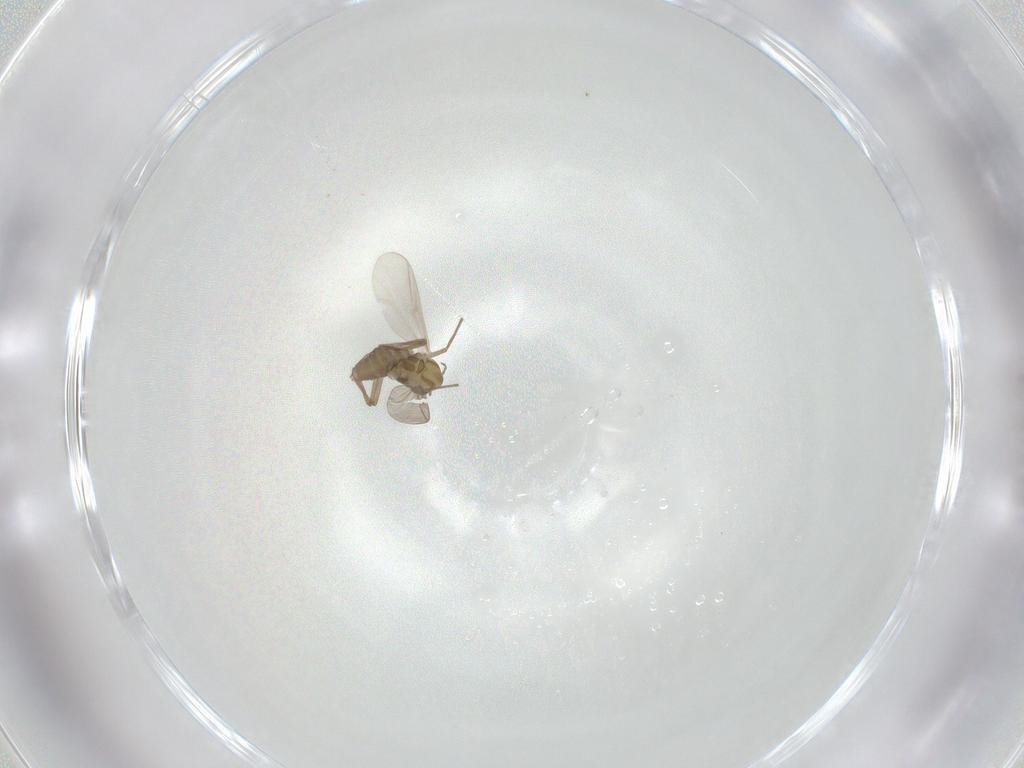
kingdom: Animalia
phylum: Arthropoda
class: Insecta
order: Diptera
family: Chironomidae
